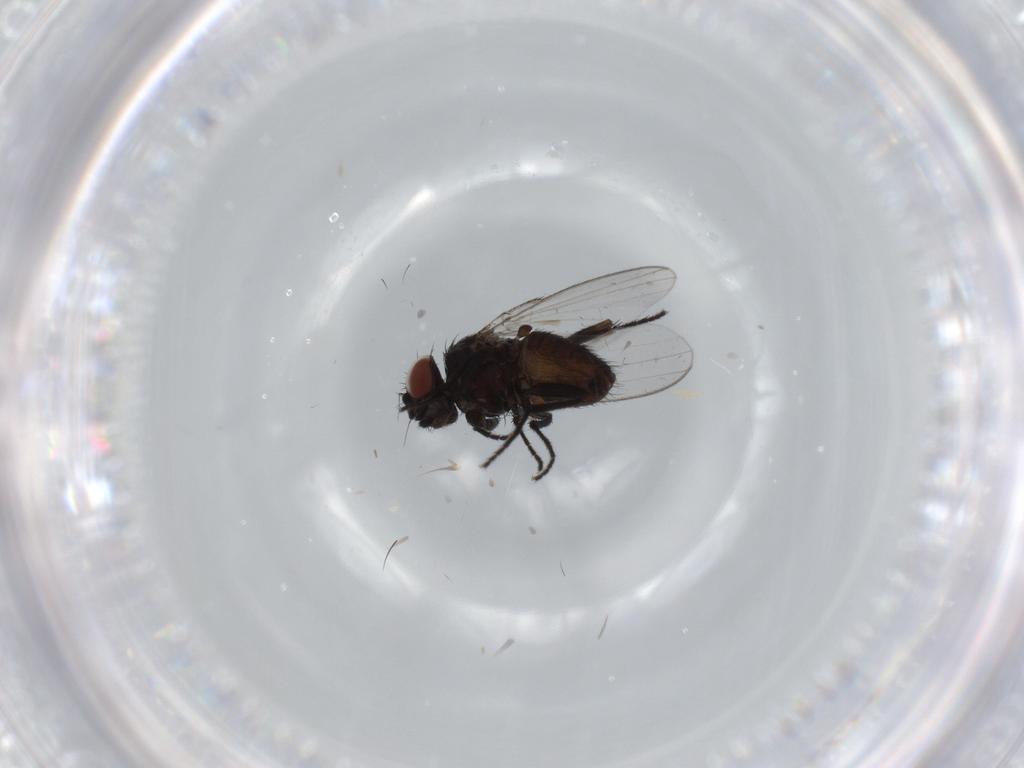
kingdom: Animalia
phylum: Arthropoda
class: Insecta
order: Diptera
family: Milichiidae
